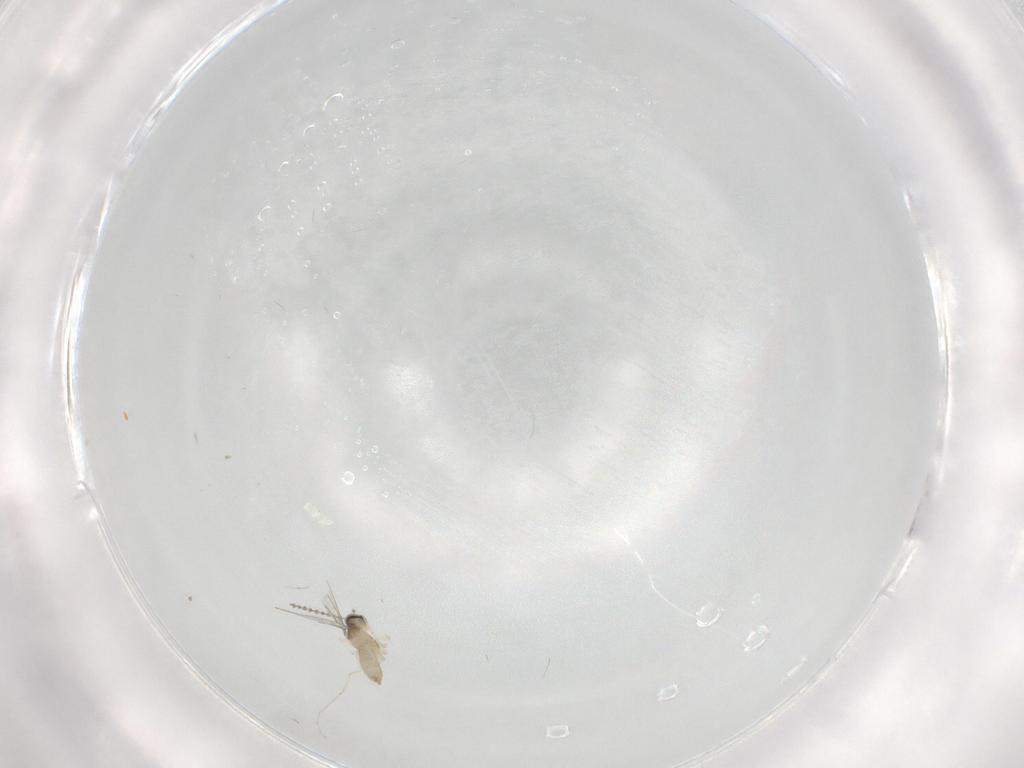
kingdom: Animalia
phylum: Arthropoda
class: Insecta
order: Diptera
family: Cecidomyiidae
